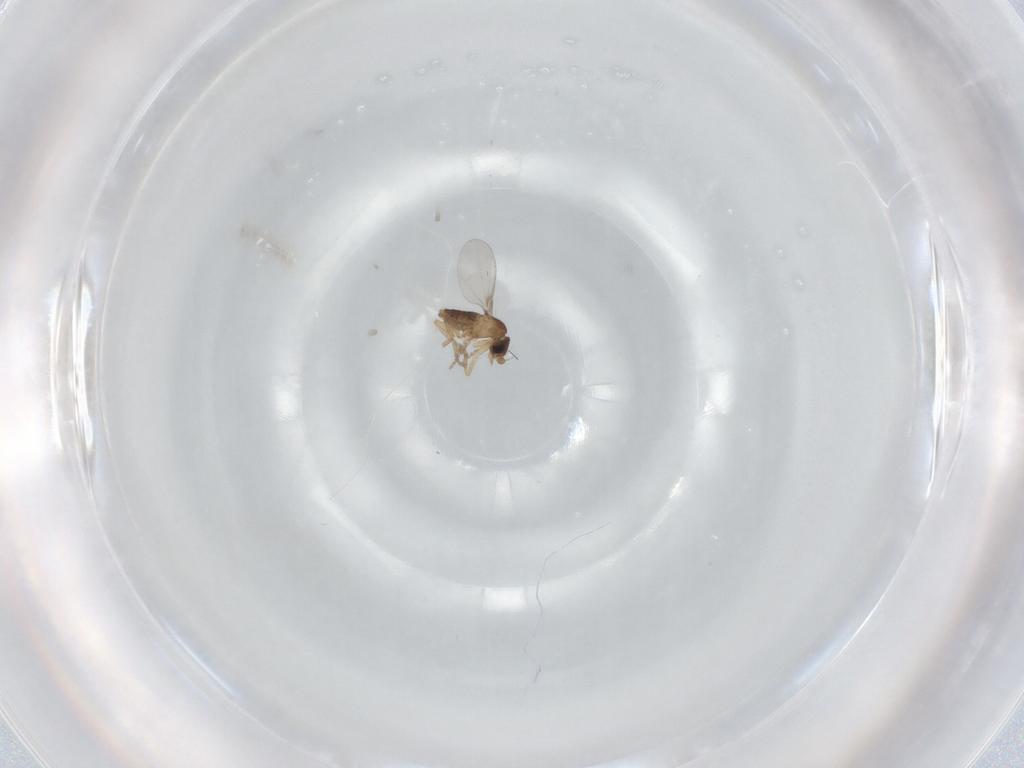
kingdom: Animalia
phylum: Arthropoda
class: Insecta
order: Diptera
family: Phoridae
